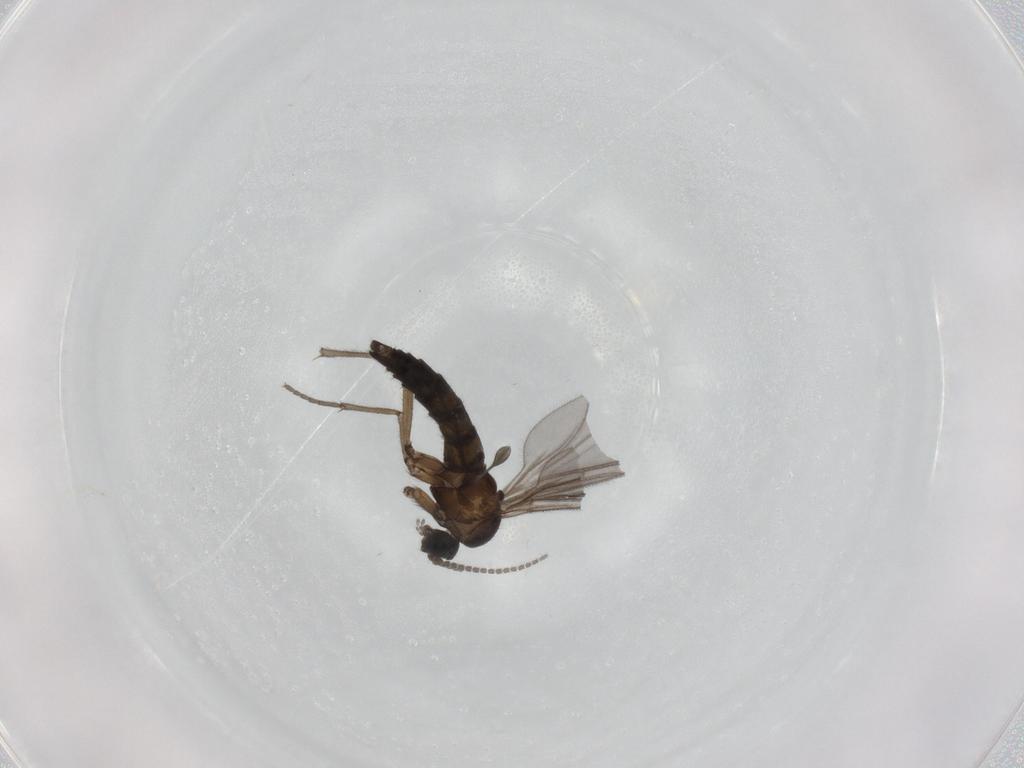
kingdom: Animalia
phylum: Arthropoda
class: Insecta
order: Diptera
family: Sciaridae
